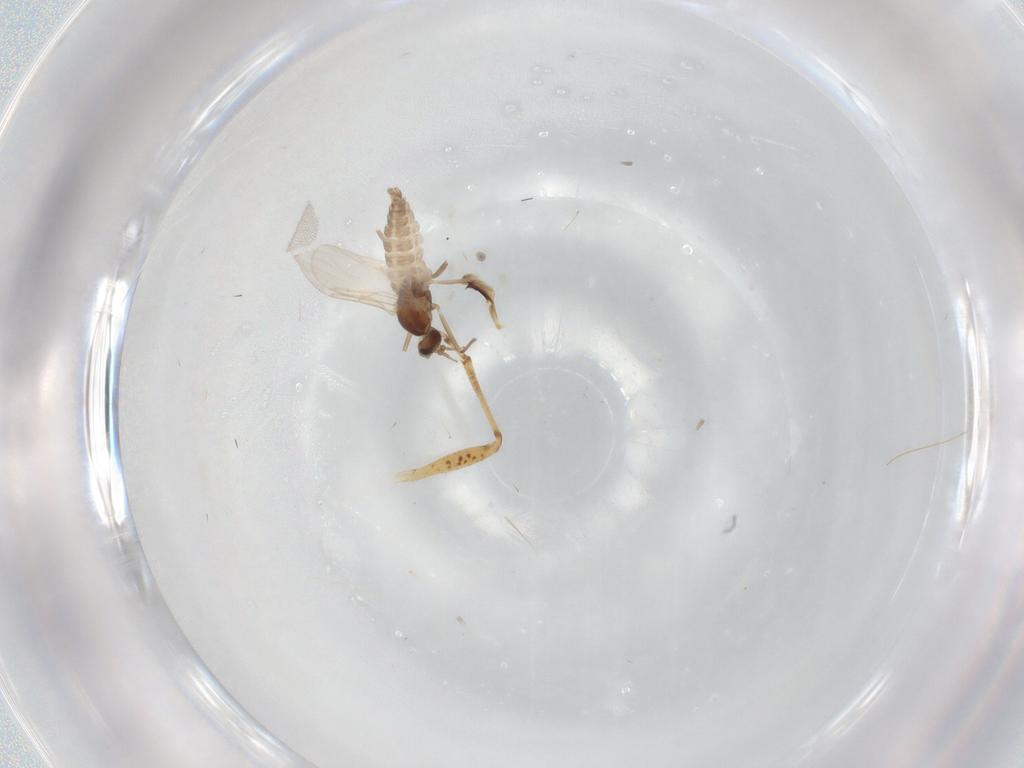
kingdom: Animalia
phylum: Arthropoda
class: Insecta
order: Diptera
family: Cecidomyiidae
